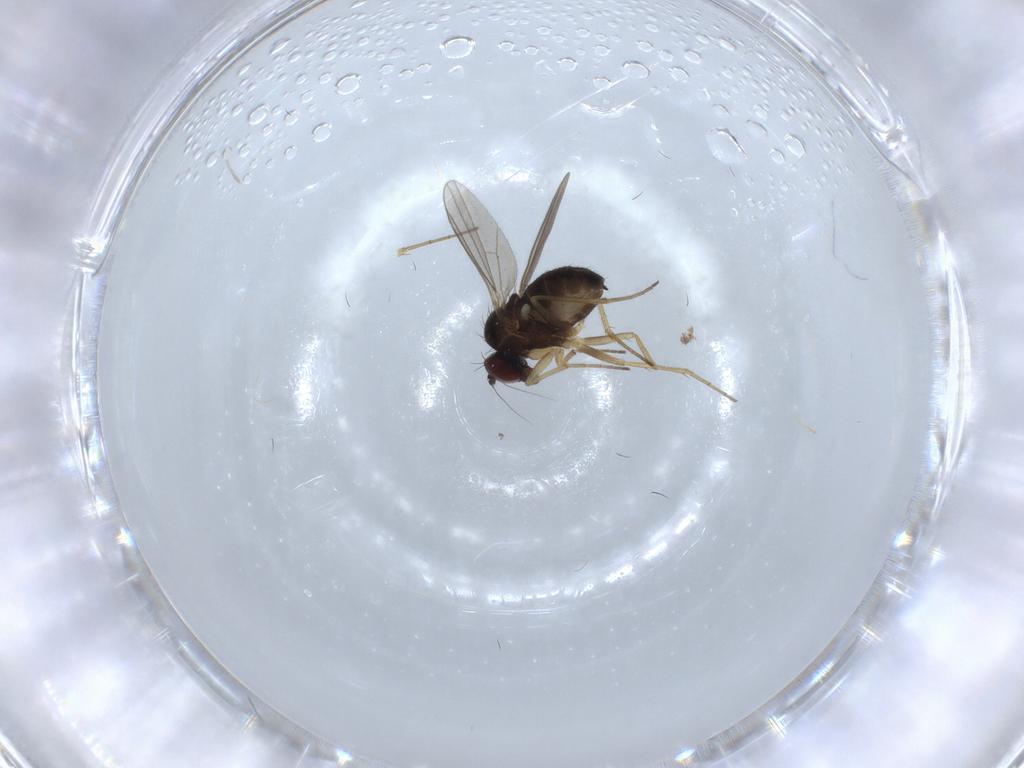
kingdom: Animalia
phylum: Arthropoda
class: Insecta
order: Diptera
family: Dolichopodidae
